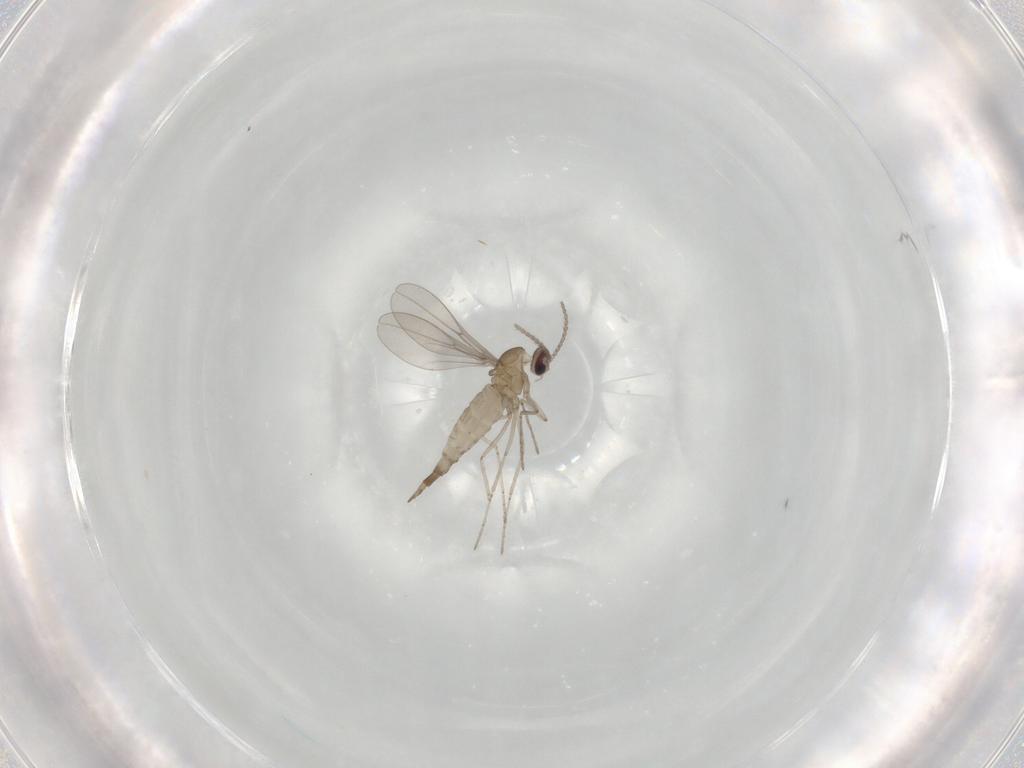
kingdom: Animalia
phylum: Arthropoda
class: Insecta
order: Diptera
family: Cecidomyiidae
